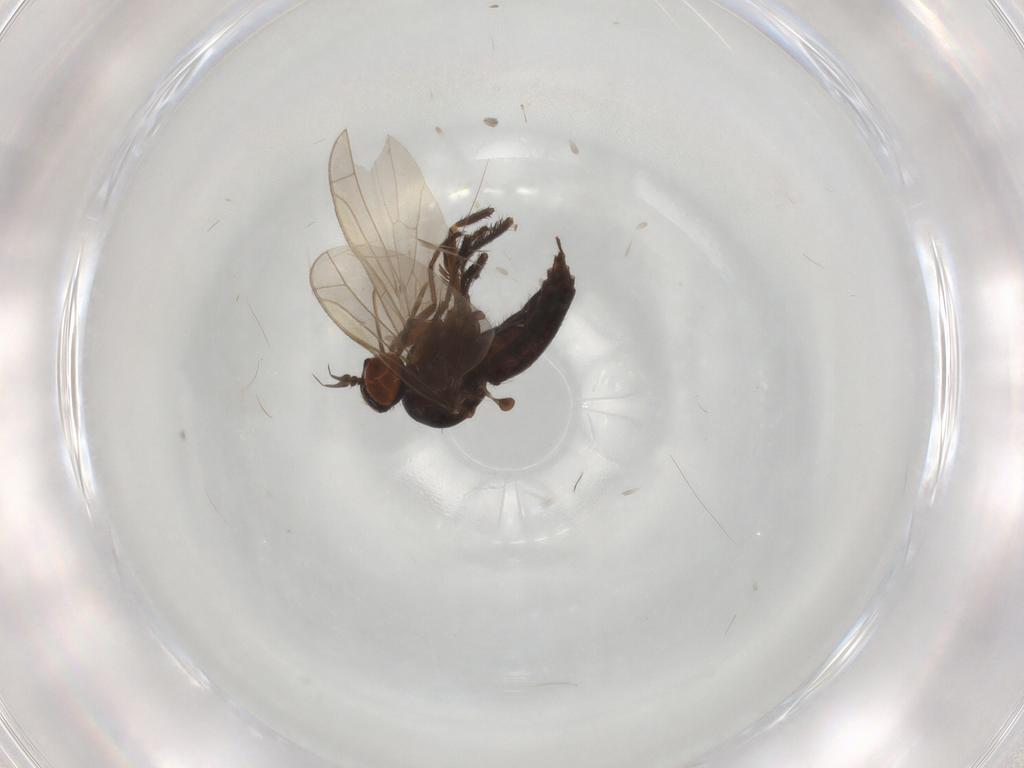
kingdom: Animalia
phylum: Arthropoda
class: Insecta
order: Diptera
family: Empididae
